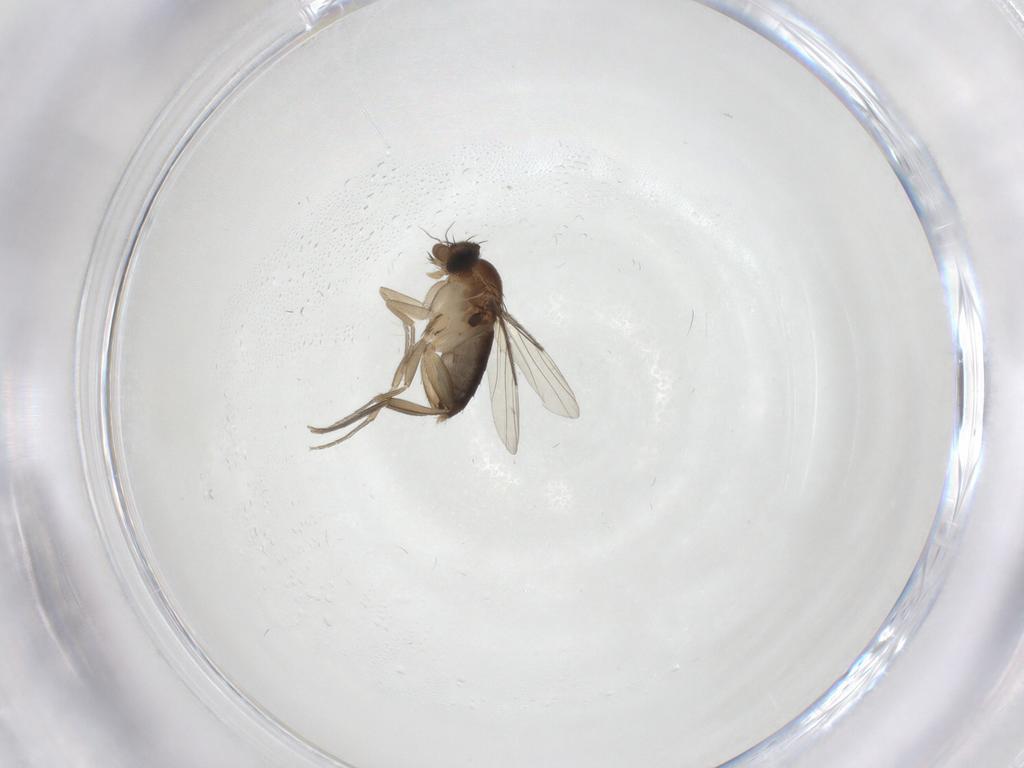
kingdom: Animalia
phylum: Arthropoda
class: Insecta
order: Diptera
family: Phoridae
